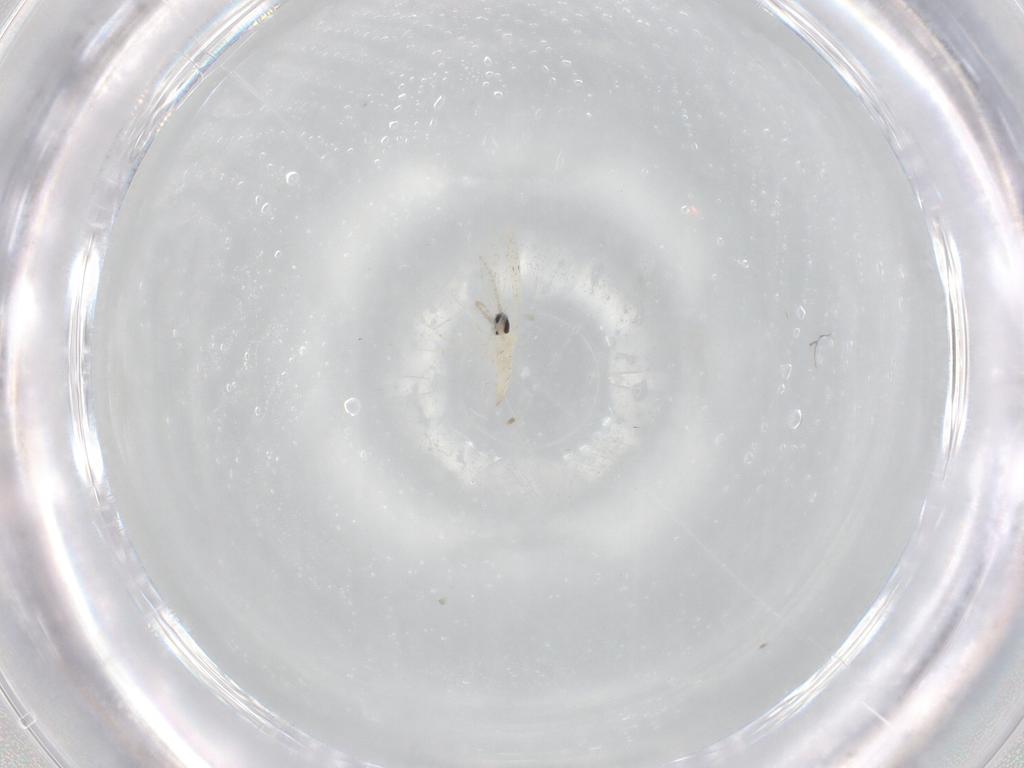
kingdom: Animalia
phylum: Arthropoda
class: Insecta
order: Diptera
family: Cecidomyiidae
